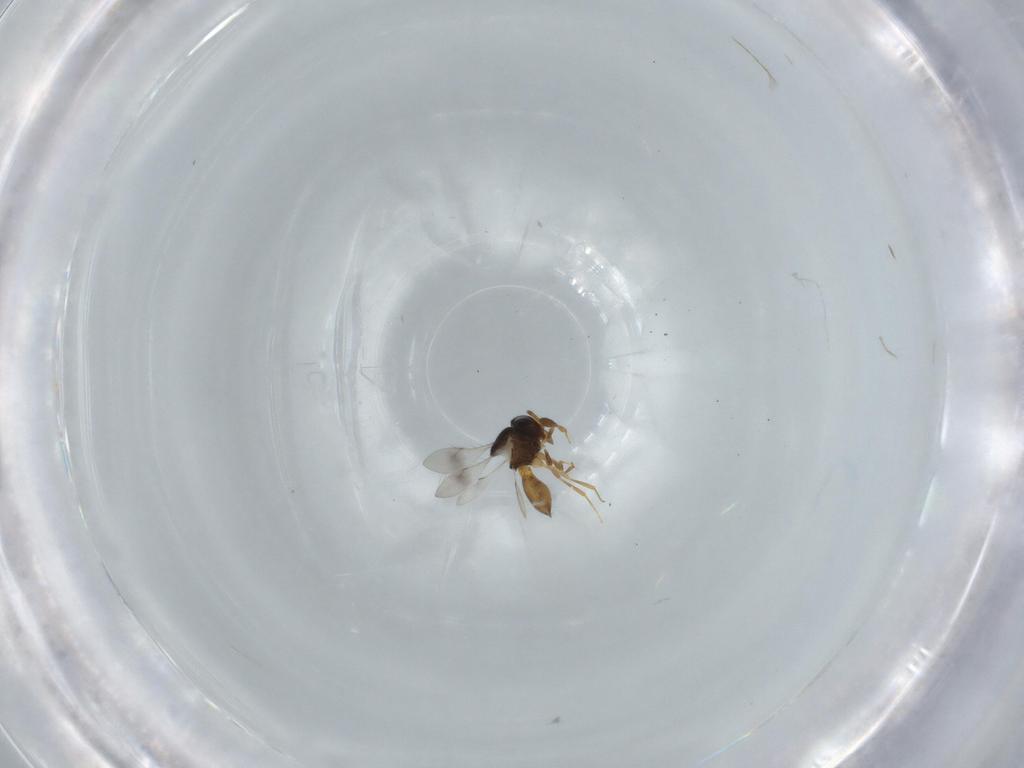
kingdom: Animalia
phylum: Arthropoda
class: Insecta
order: Hymenoptera
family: Scelionidae
